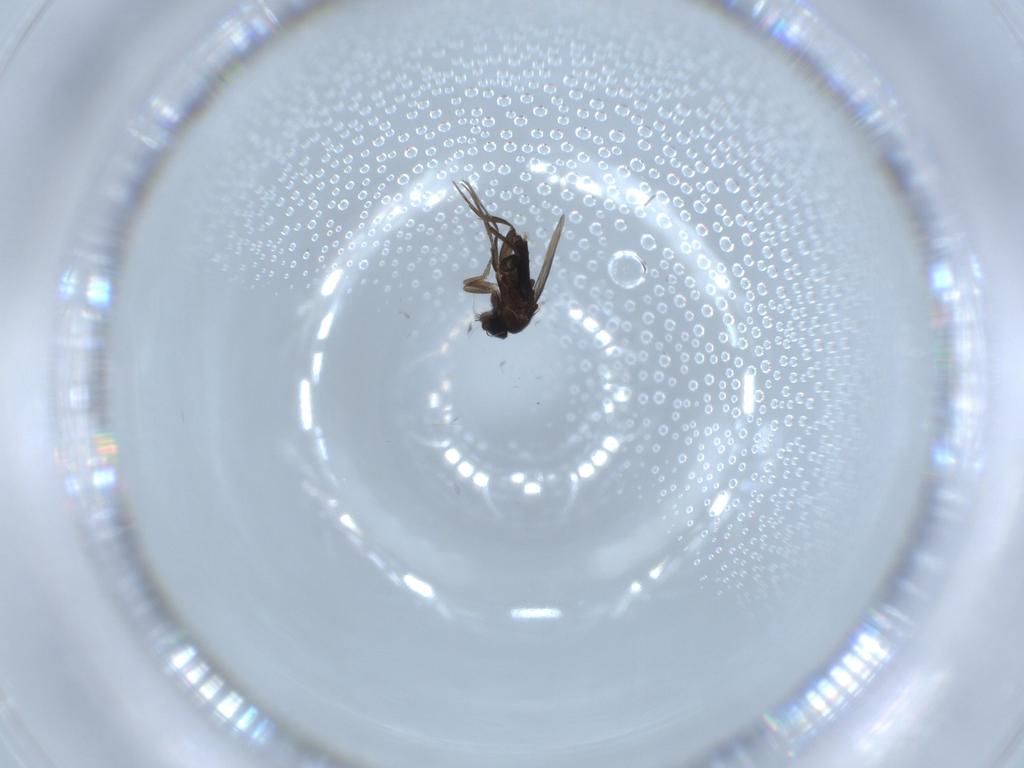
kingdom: Animalia
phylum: Arthropoda
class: Insecta
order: Diptera
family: Phoridae
